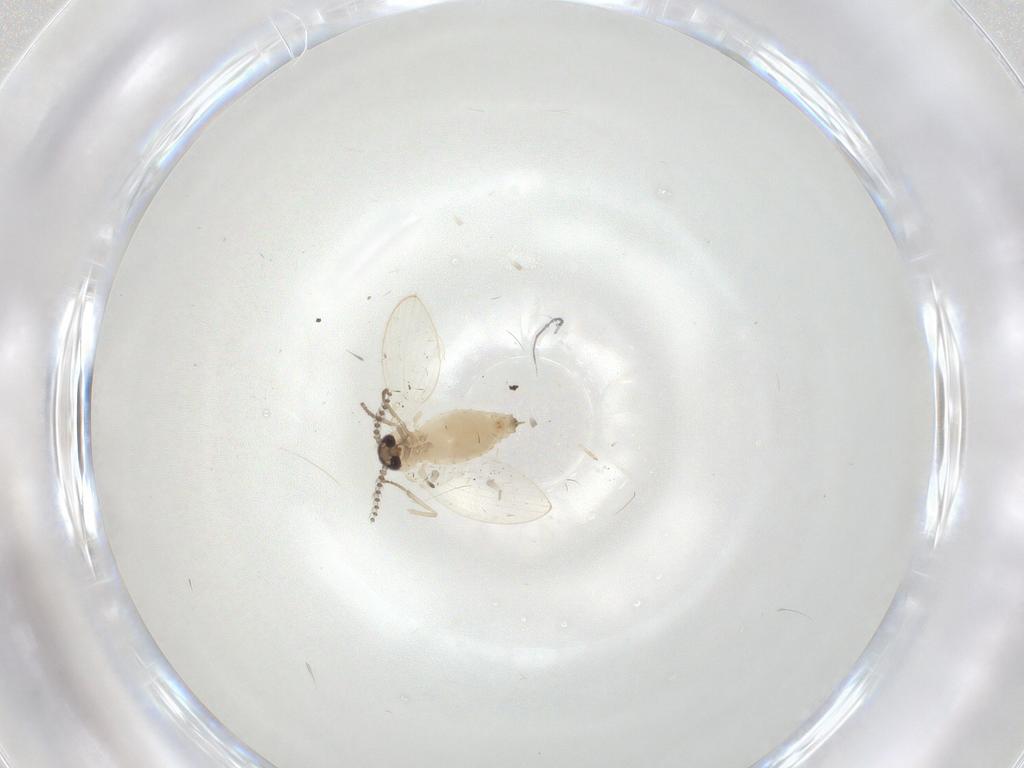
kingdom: Animalia
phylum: Arthropoda
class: Insecta
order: Diptera
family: Psychodidae
